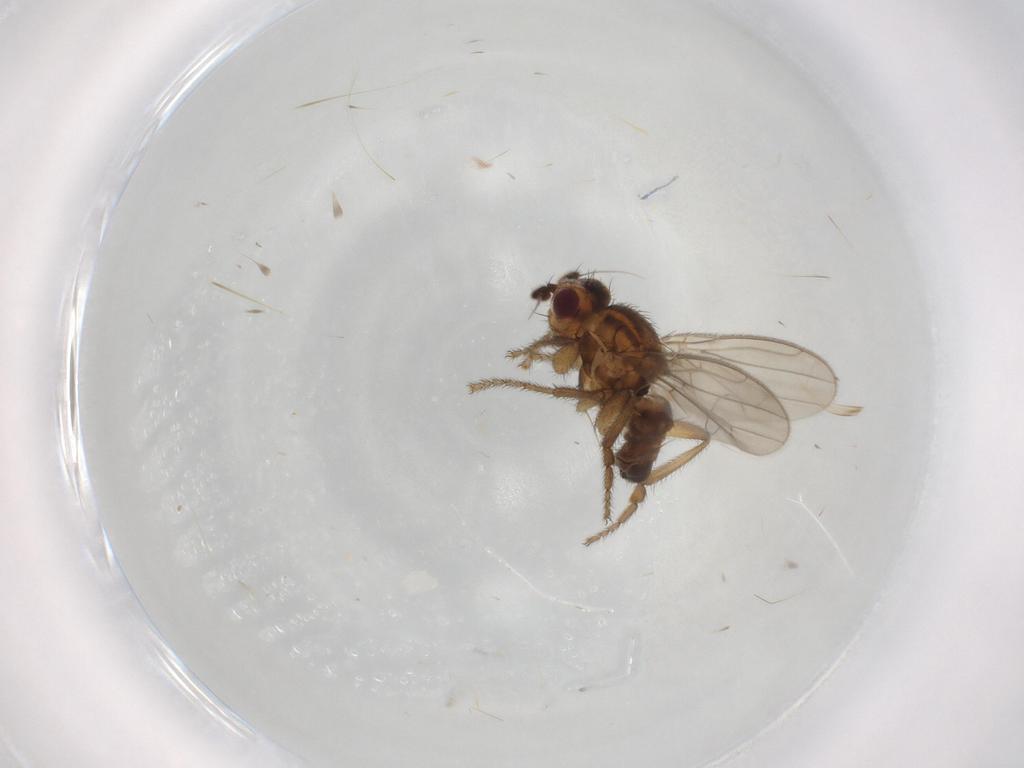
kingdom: Animalia
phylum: Arthropoda
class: Insecta
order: Diptera
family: Sphaeroceridae
